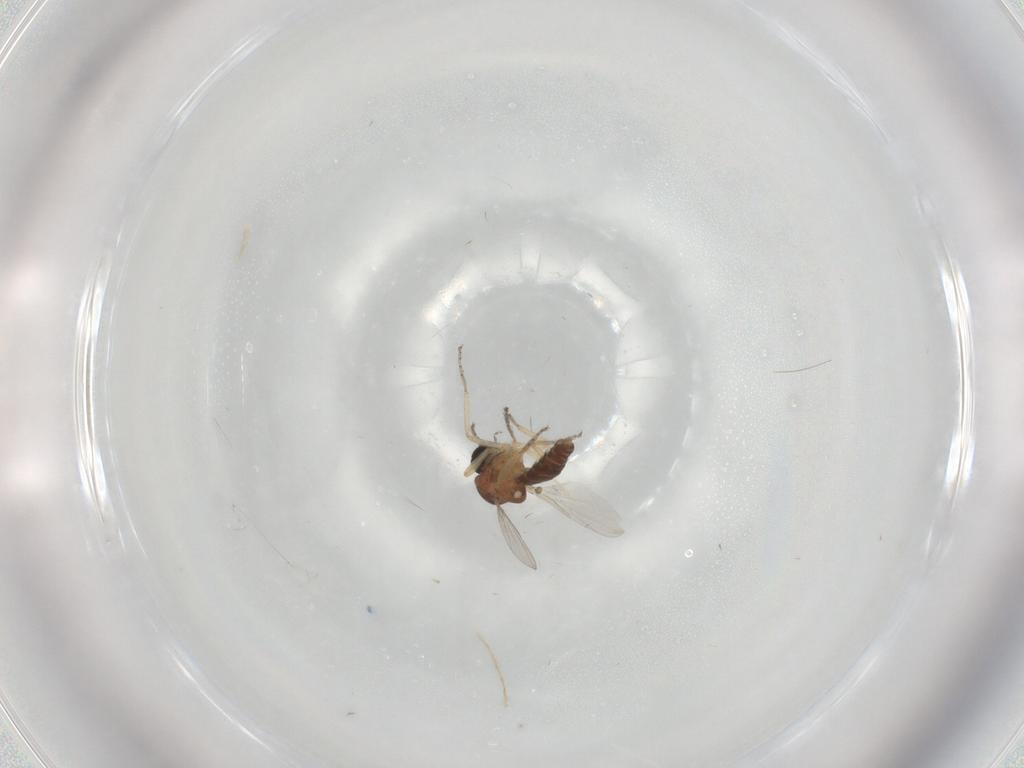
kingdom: Animalia
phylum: Arthropoda
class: Insecta
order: Diptera
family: Ceratopogonidae
